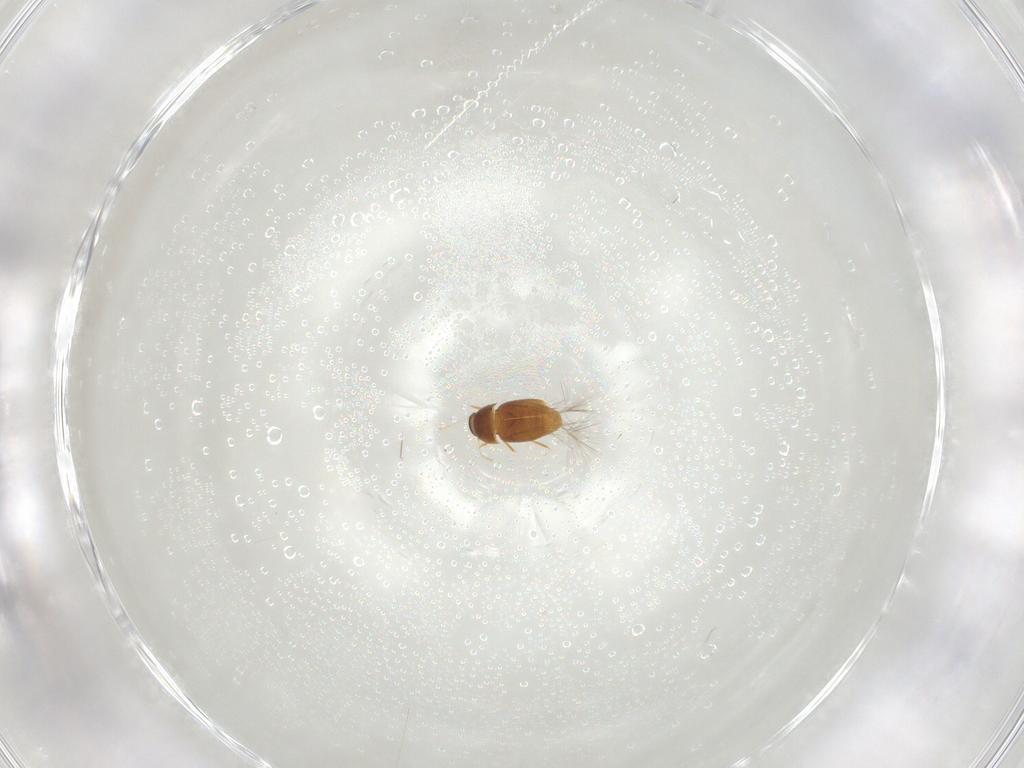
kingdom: Animalia
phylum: Arthropoda
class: Insecta
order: Coleoptera
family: Ptiliidae
